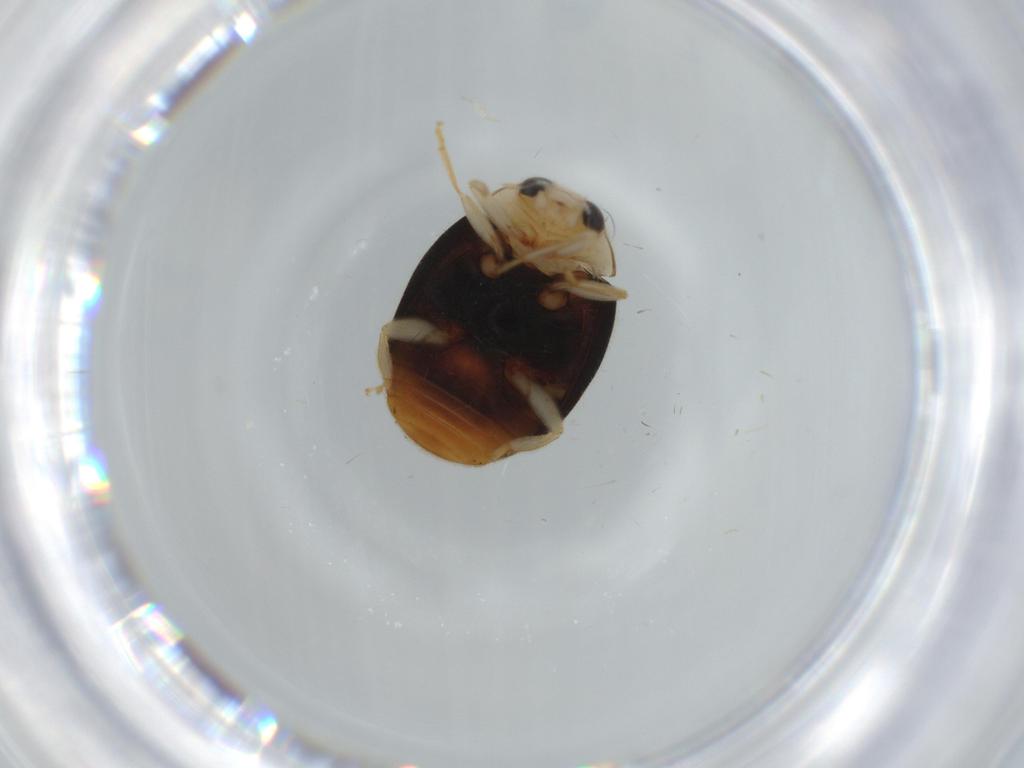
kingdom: Animalia
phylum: Arthropoda
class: Insecta
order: Coleoptera
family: Coccinellidae
